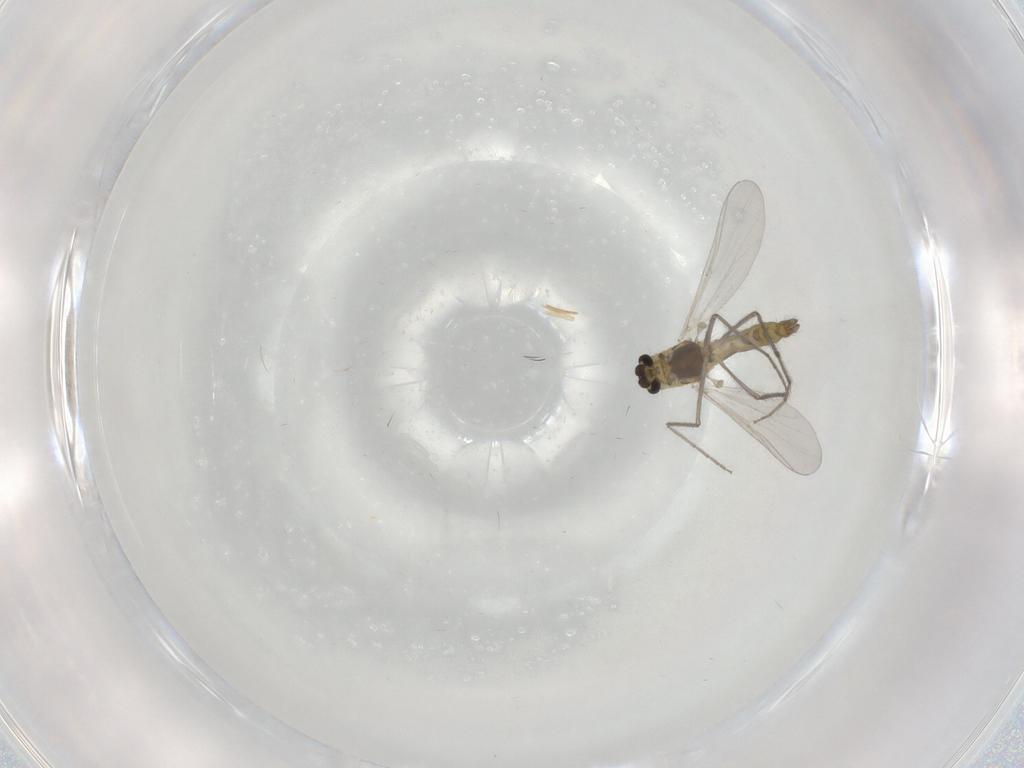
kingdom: Animalia
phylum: Arthropoda
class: Insecta
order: Diptera
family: Chironomidae
